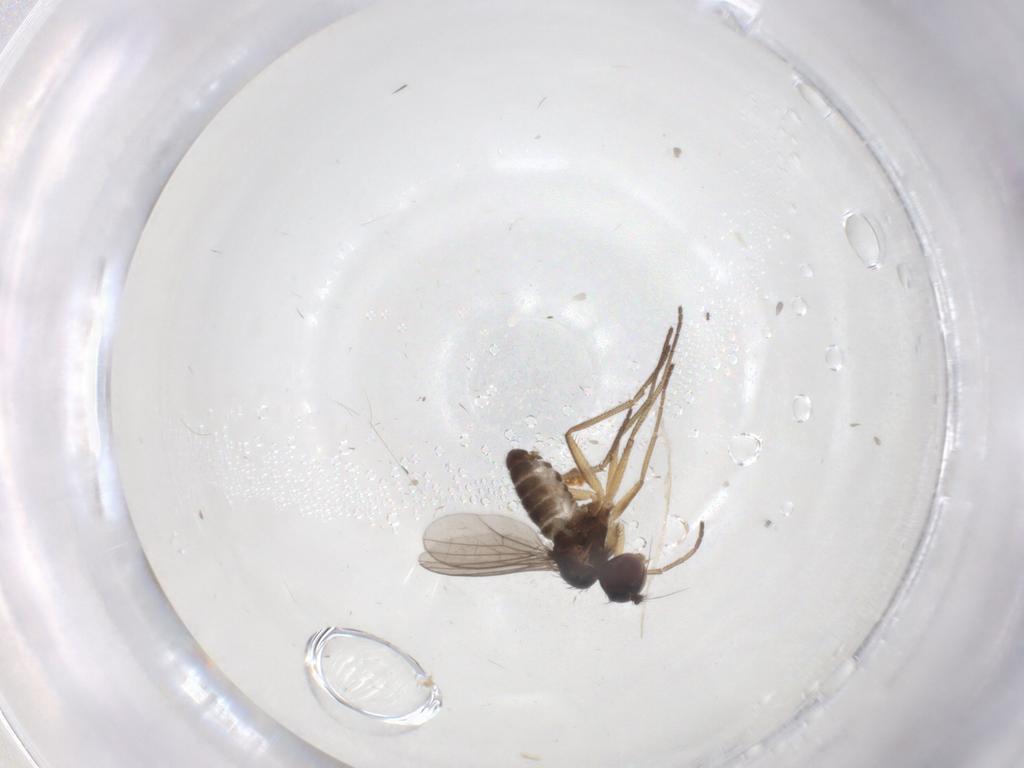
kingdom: Animalia
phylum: Arthropoda
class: Insecta
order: Diptera
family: Dolichopodidae
